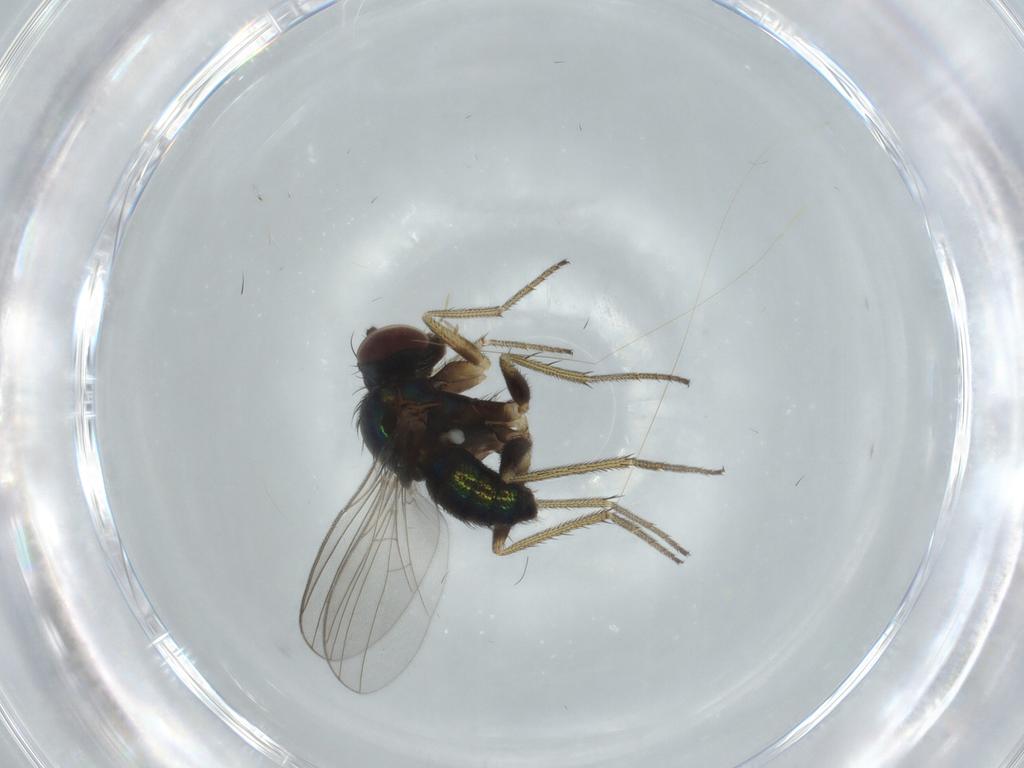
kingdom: Animalia
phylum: Arthropoda
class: Insecta
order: Diptera
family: Dolichopodidae
